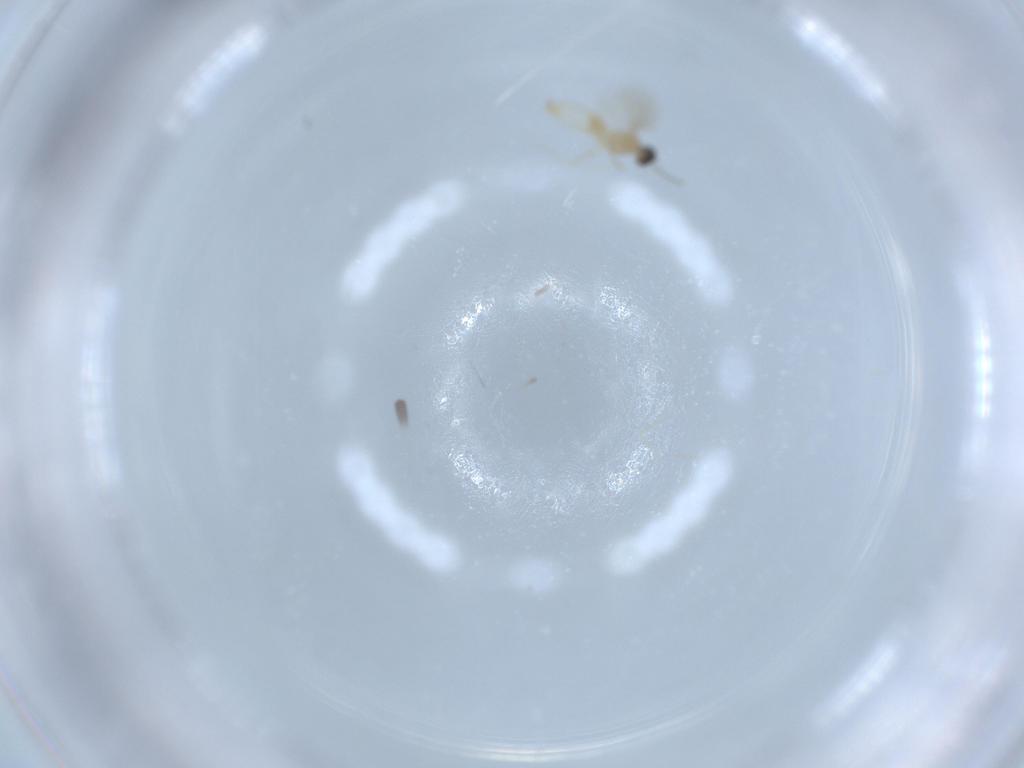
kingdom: Animalia
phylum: Arthropoda
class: Insecta
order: Diptera
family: Cecidomyiidae
